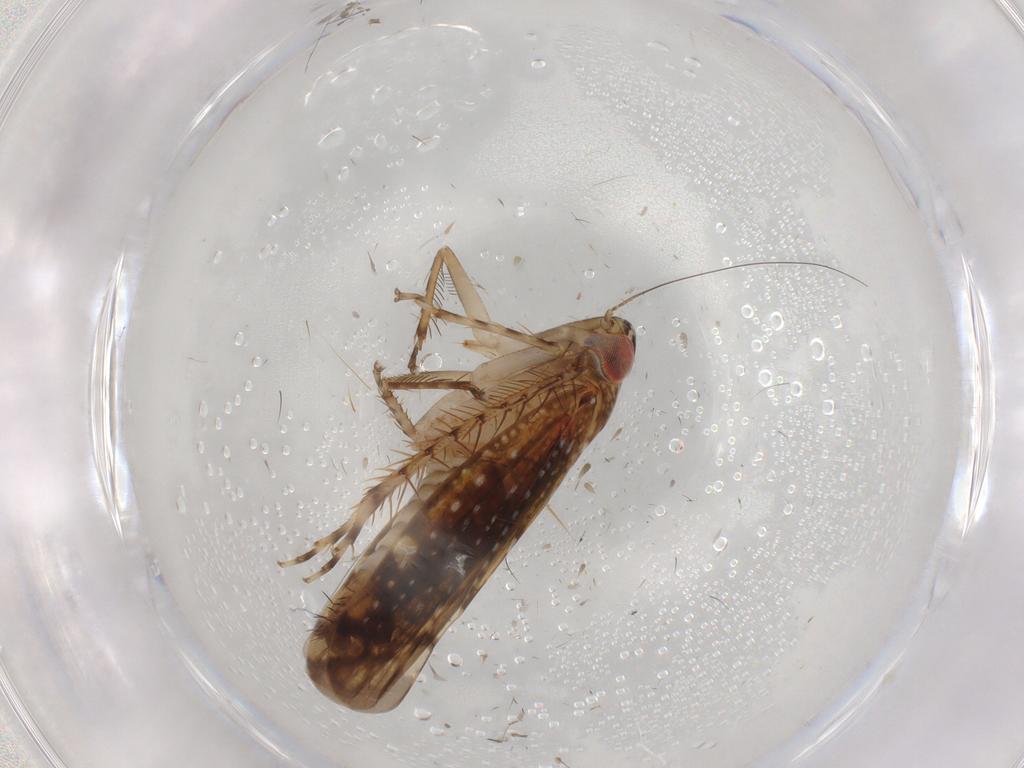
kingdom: Animalia
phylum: Arthropoda
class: Insecta
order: Hemiptera
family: Cicadellidae
